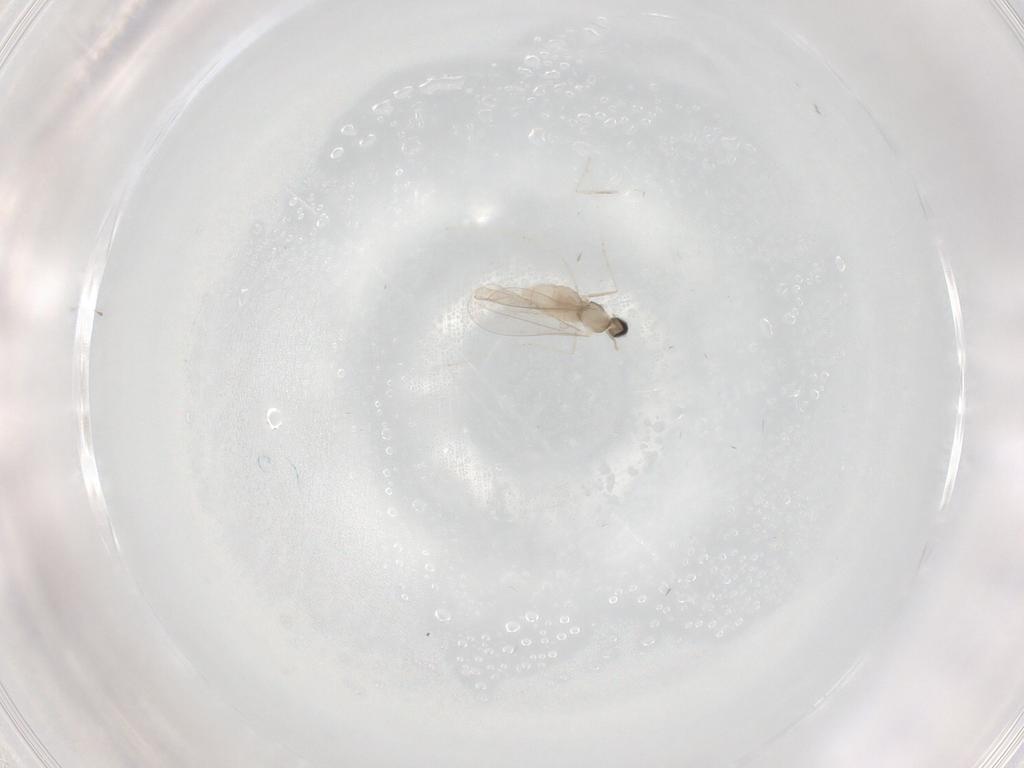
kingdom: Animalia
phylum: Arthropoda
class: Insecta
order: Diptera
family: Cecidomyiidae
